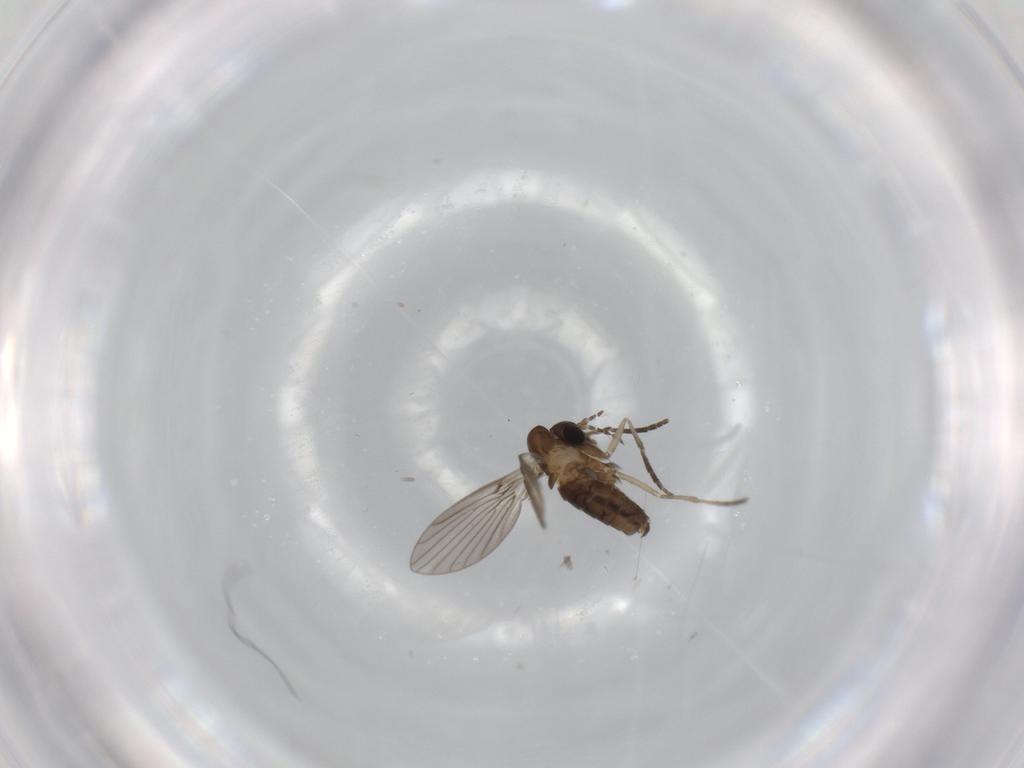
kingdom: Animalia
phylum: Arthropoda
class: Insecta
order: Diptera
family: Psychodidae
